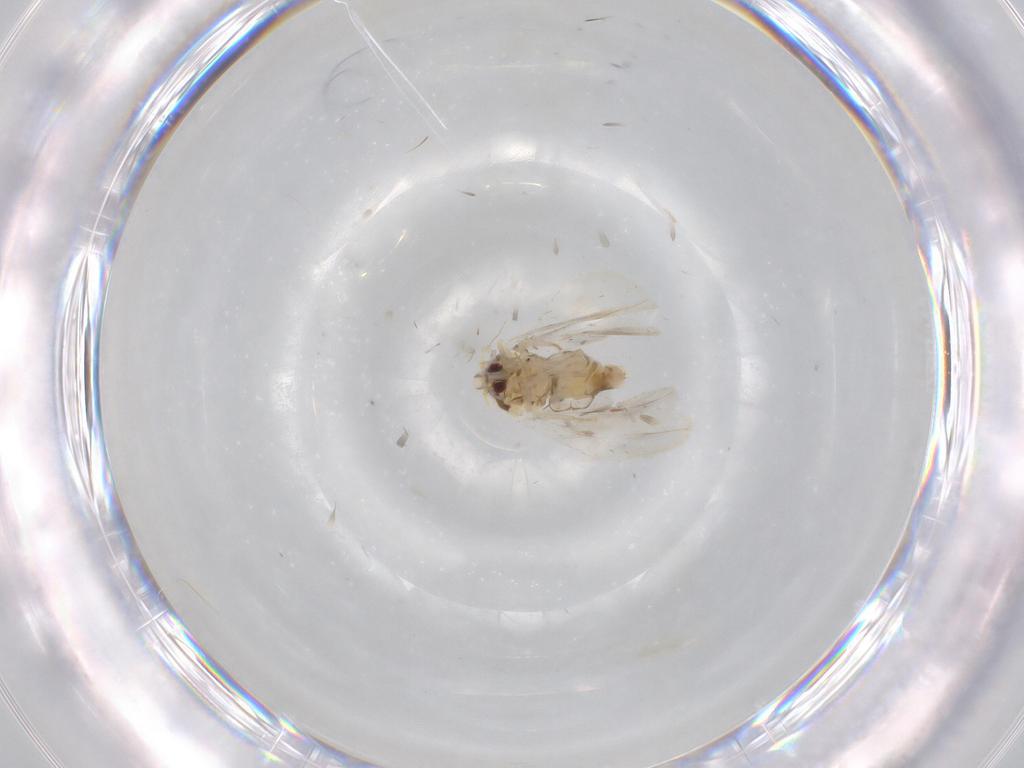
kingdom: Animalia
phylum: Arthropoda
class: Insecta
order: Hemiptera
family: Aleyrodidae
